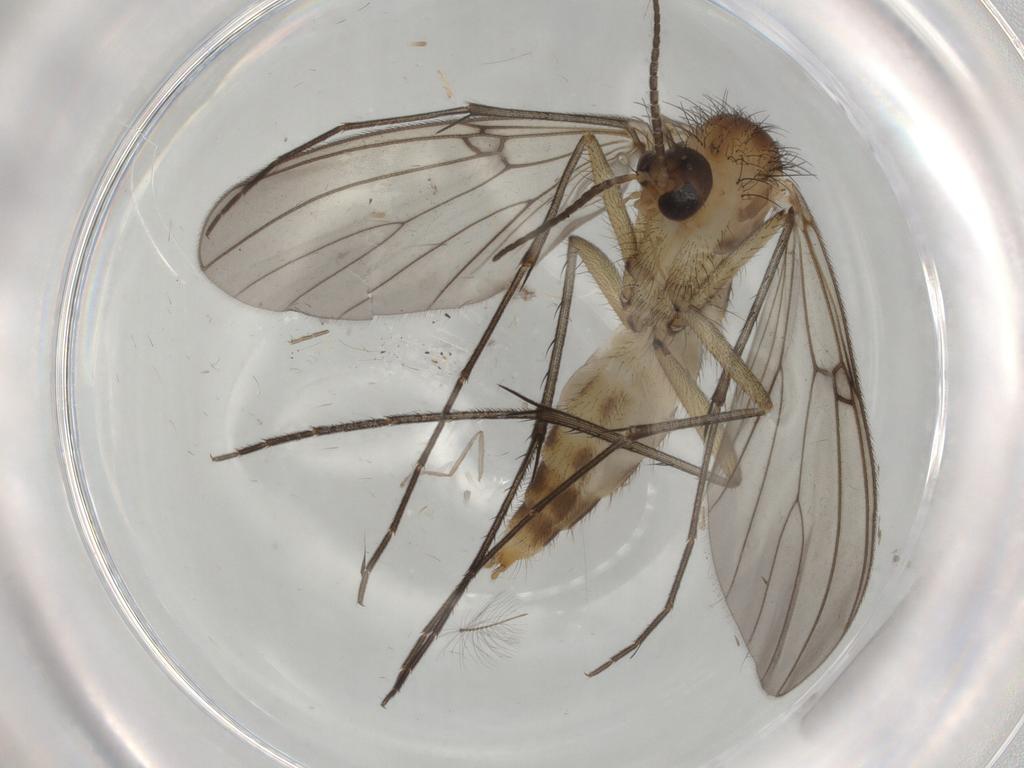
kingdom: Animalia
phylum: Arthropoda
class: Insecta
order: Diptera
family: Mycetophilidae
